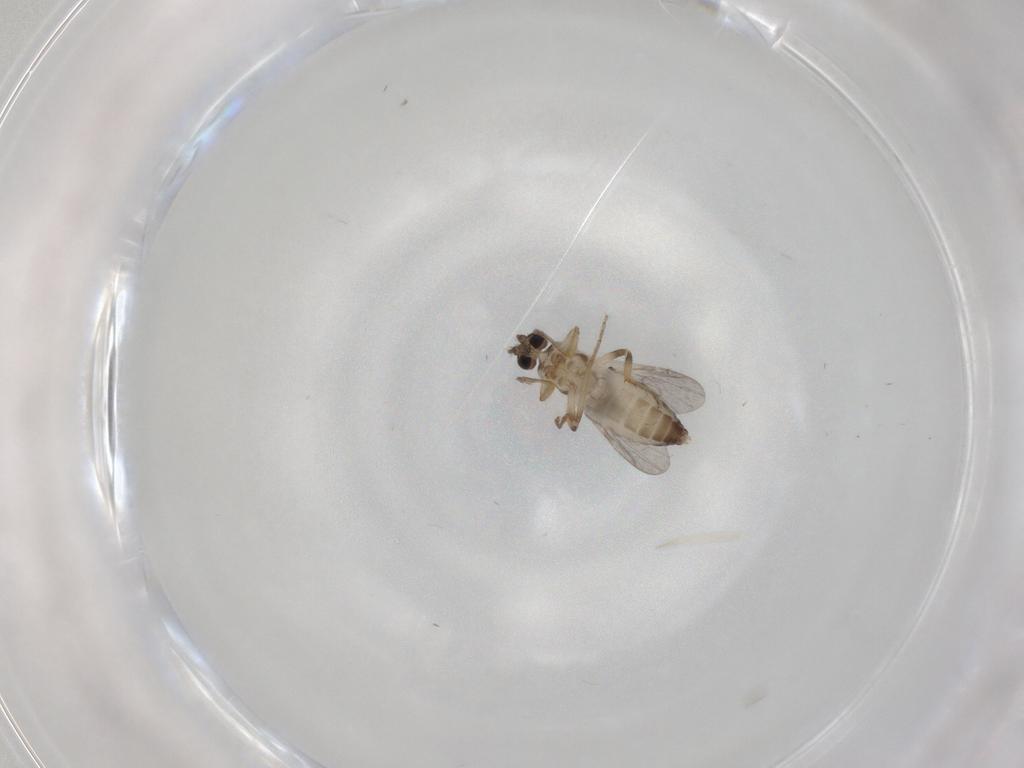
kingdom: Animalia
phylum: Arthropoda
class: Insecta
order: Diptera
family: Ceratopogonidae
